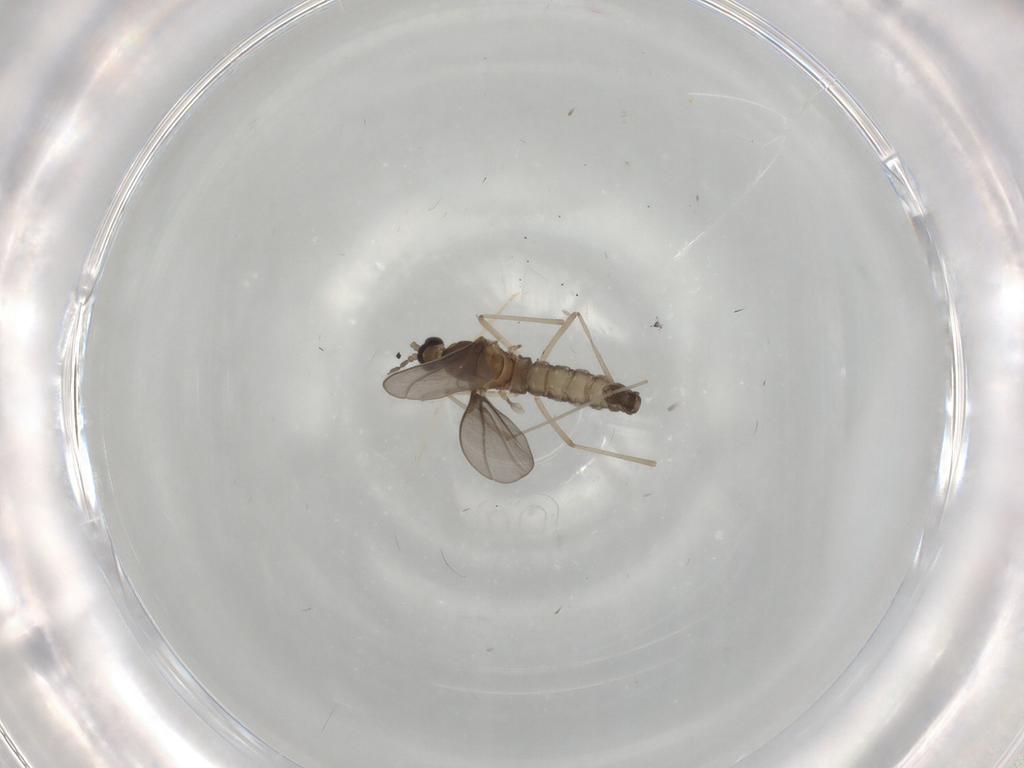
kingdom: Animalia
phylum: Arthropoda
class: Insecta
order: Diptera
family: Cecidomyiidae
